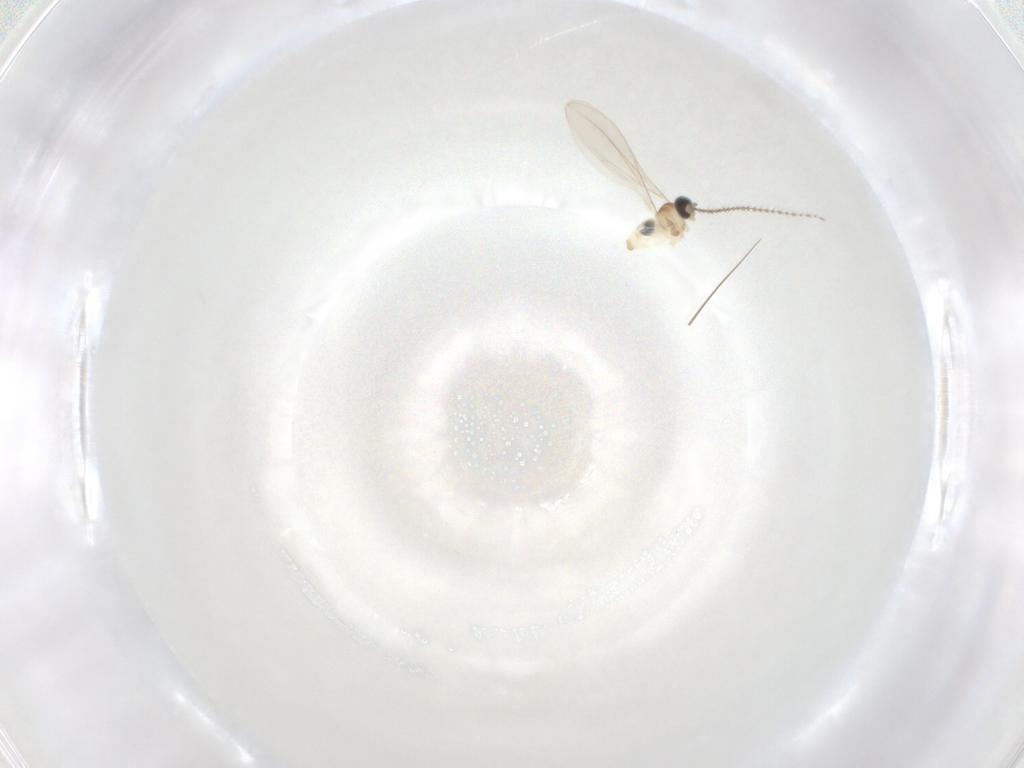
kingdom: Animalia
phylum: Arthropoda
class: Insecta
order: Diptera
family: Cecidomyiidae
